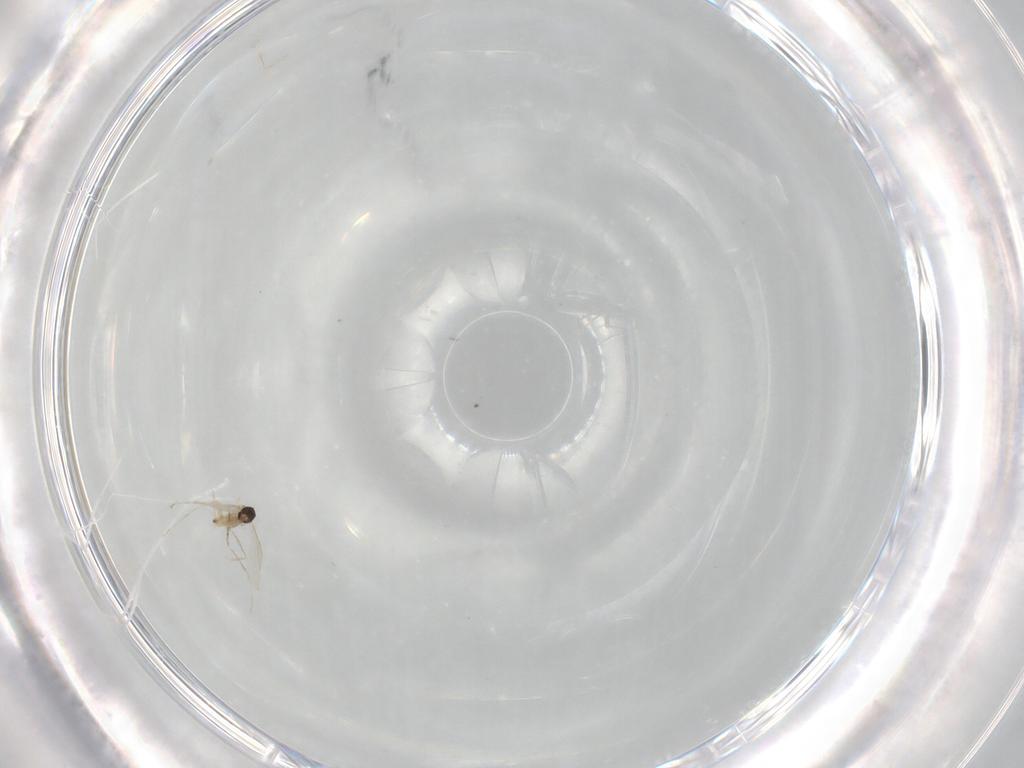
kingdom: Animalia
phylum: Arthropoda
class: Insecta
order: Diptera
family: Cecidomyiidae
